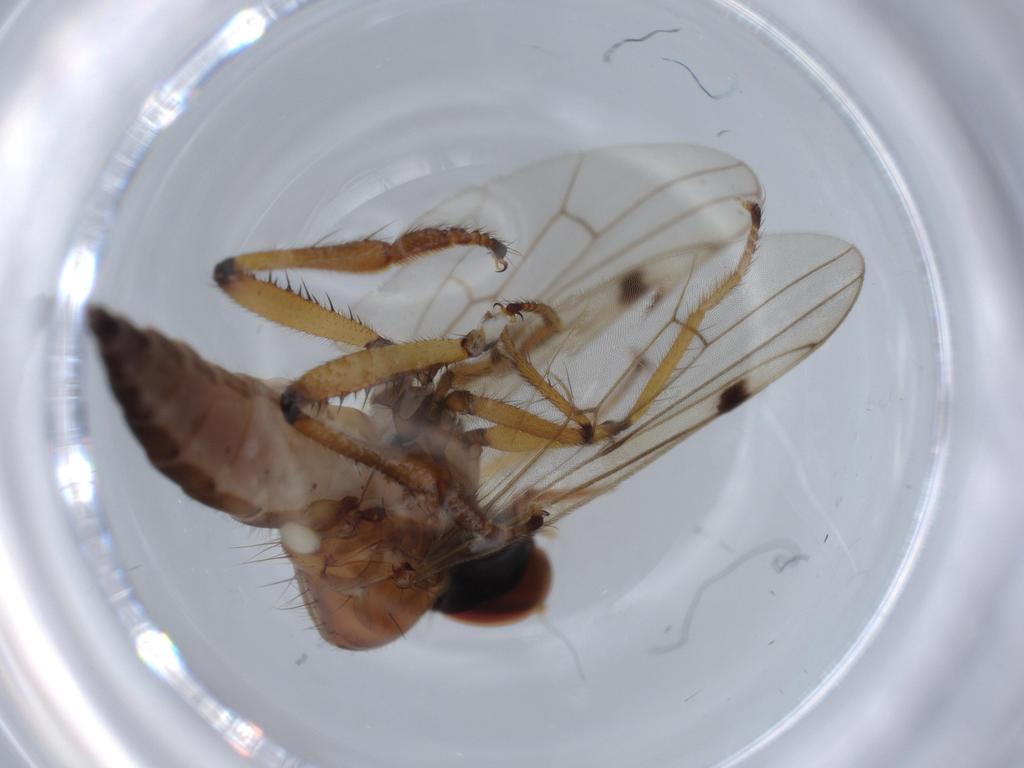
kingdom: Animalia
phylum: Arthropoda
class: Insecta
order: Diptera
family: Hybotidae
